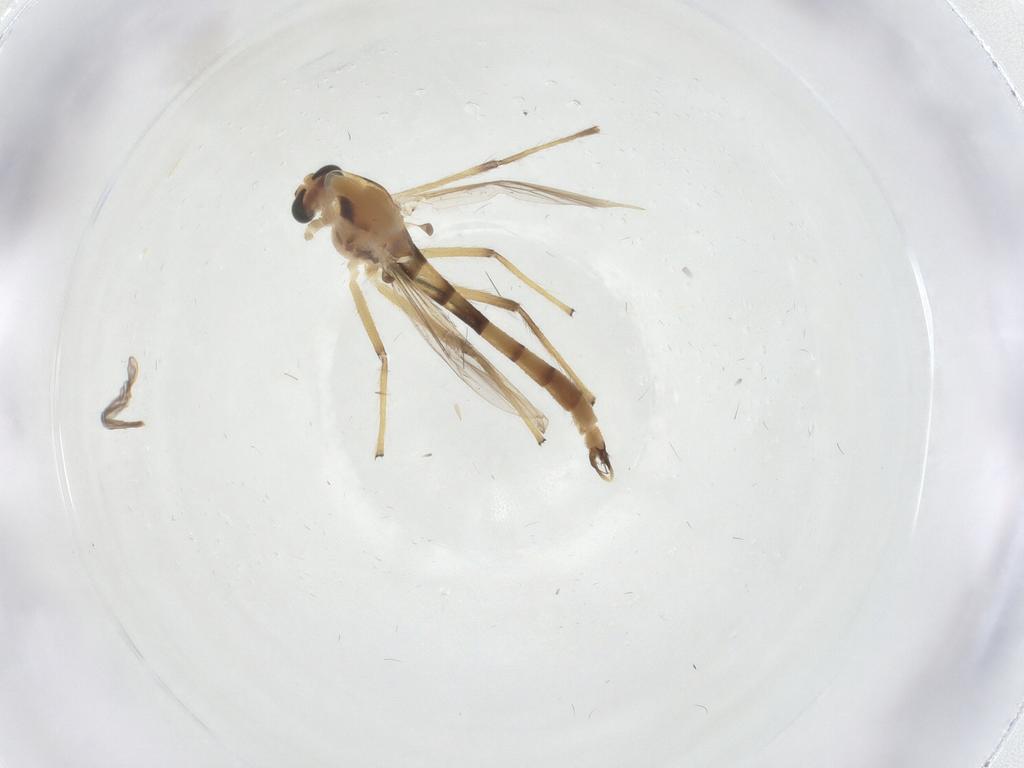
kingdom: Animalia
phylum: Arthropoda
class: Insecta
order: Diptera
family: Chironomidae
